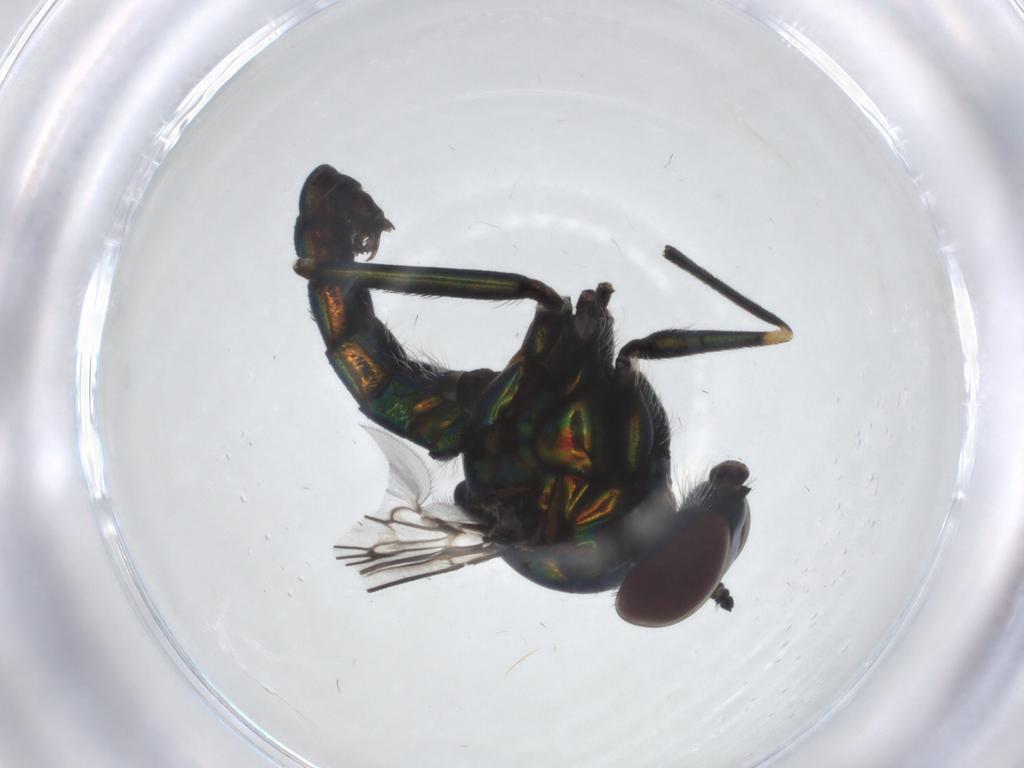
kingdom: Animalia
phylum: Arthropoda
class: Insecta
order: Diptera
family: Dolichopodidae
